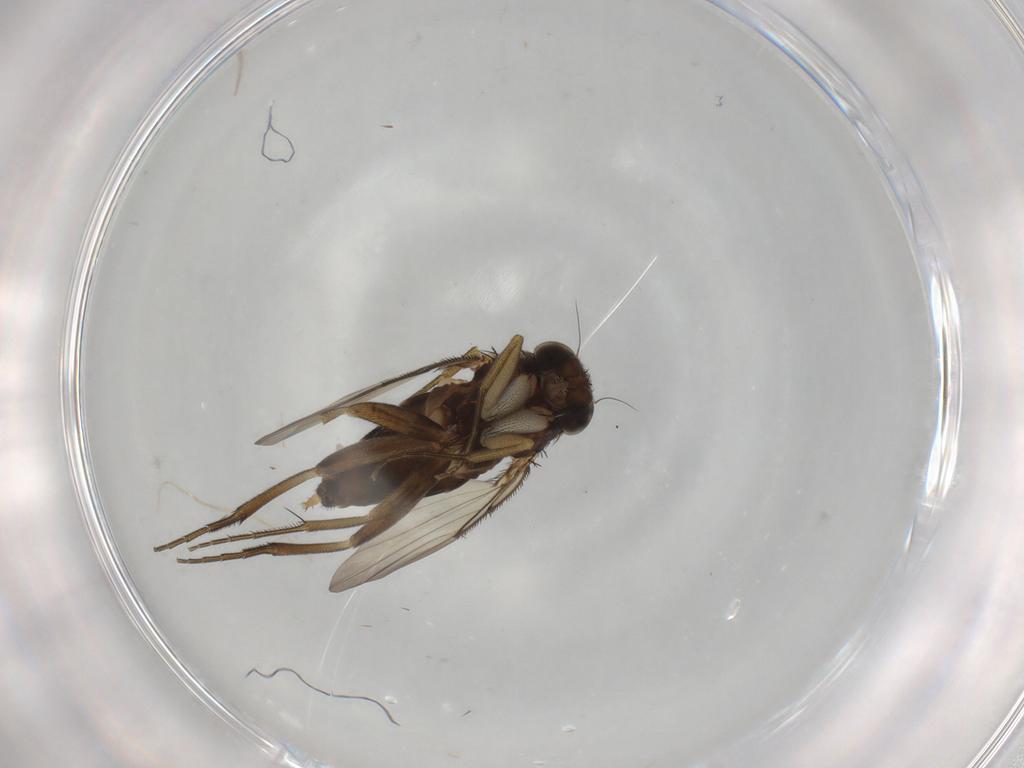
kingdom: Animalia
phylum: Arthropoda
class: Insecta
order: Diptera
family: Phoridae
